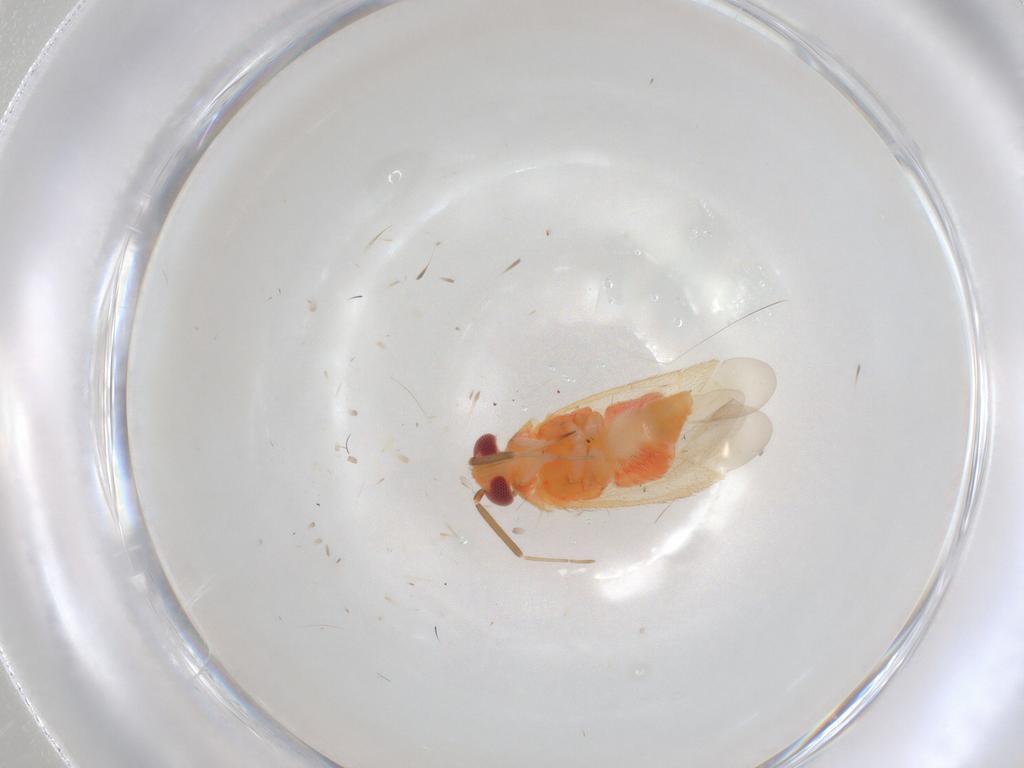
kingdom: Animalia
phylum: Arthropoda
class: Insecta
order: Hemiptera
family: Miridae
